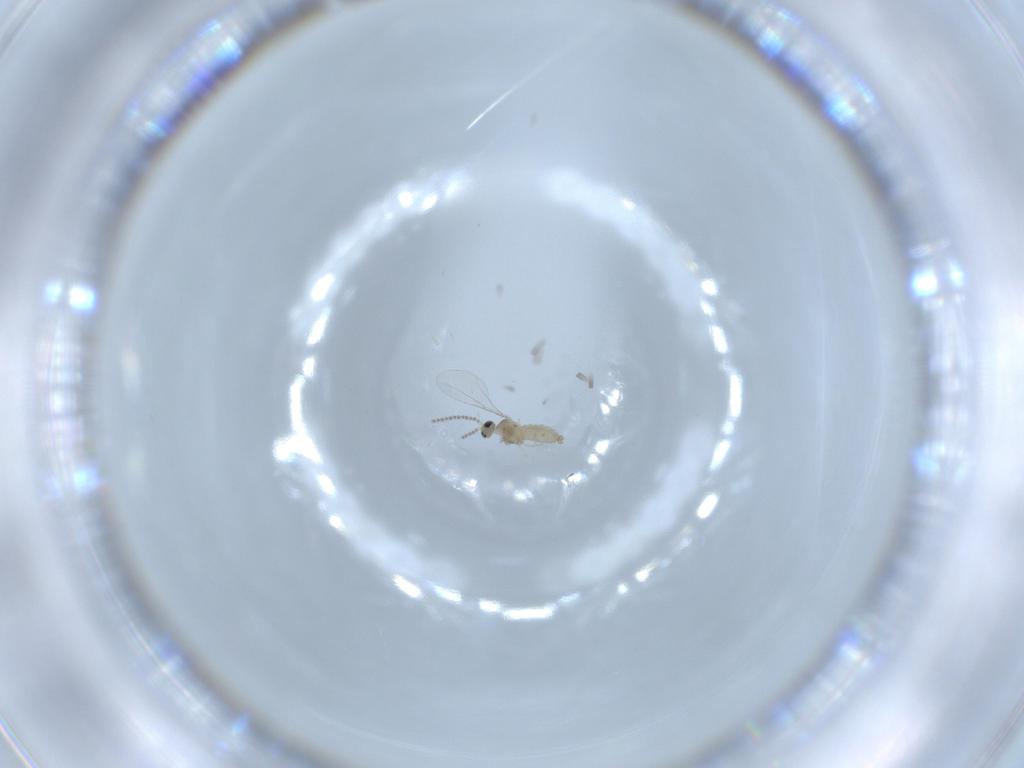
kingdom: Animalia
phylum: Arthropoda
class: Insecta
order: Diptera
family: Cecidomyiidae
